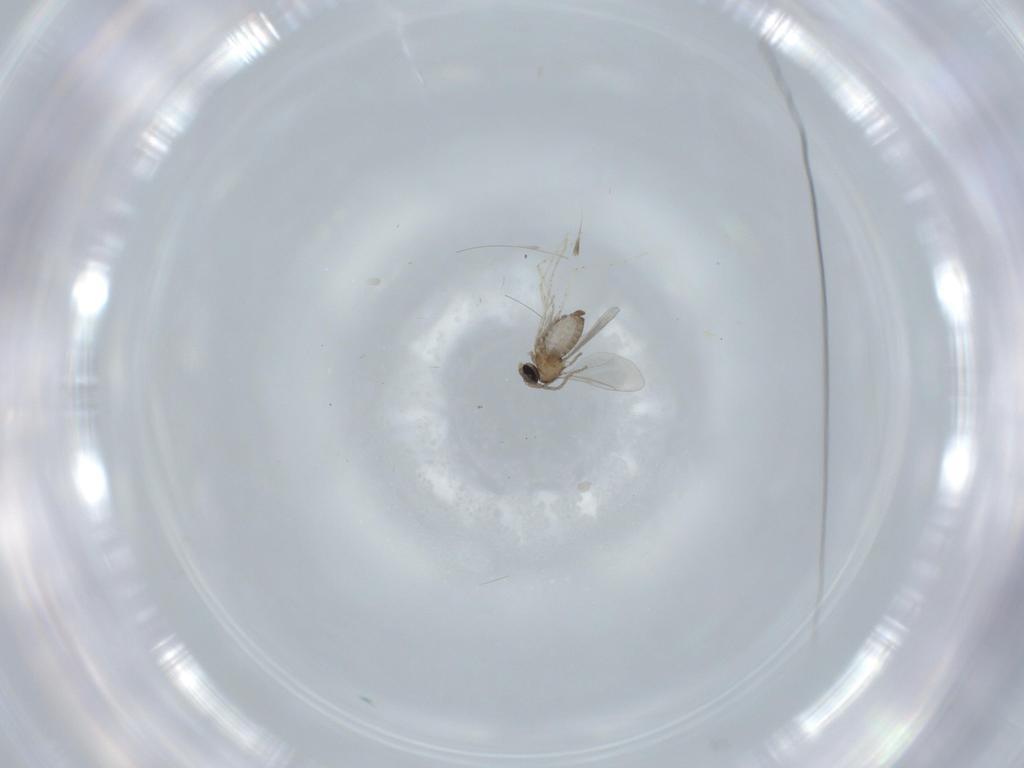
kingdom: Animalia
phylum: Arthropoda
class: Insecta
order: Diptera
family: Cecidomyiidae
